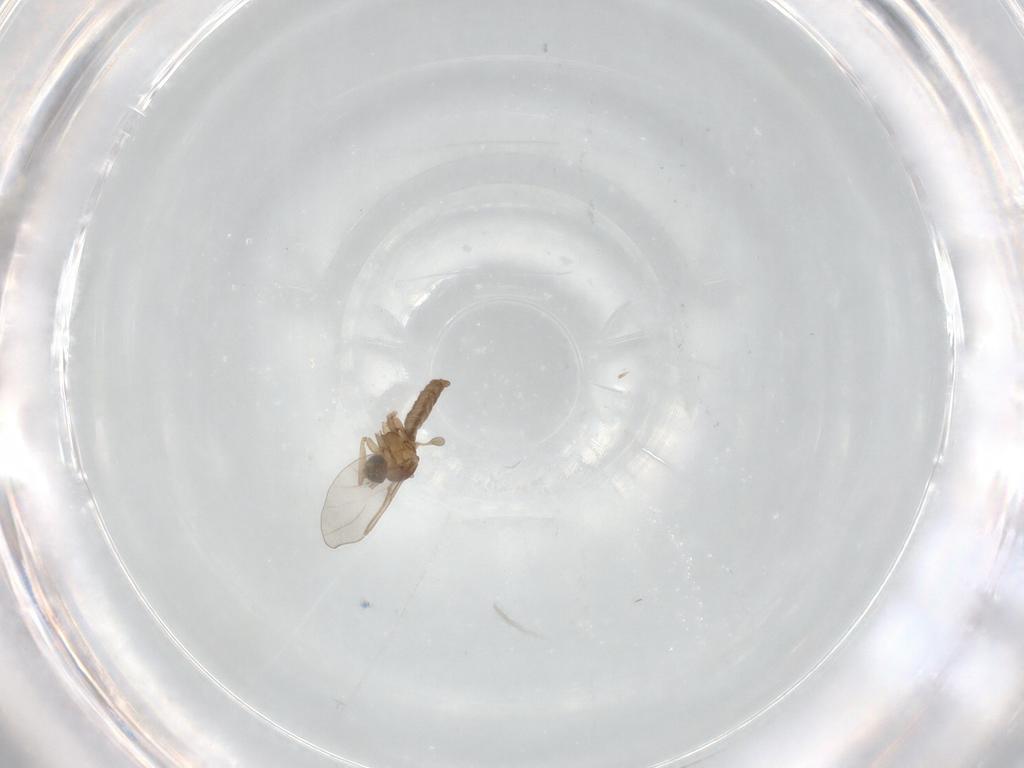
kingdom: Animalia
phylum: Arthropoda
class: Insecta
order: Diptera
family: Cecidomyiidae
